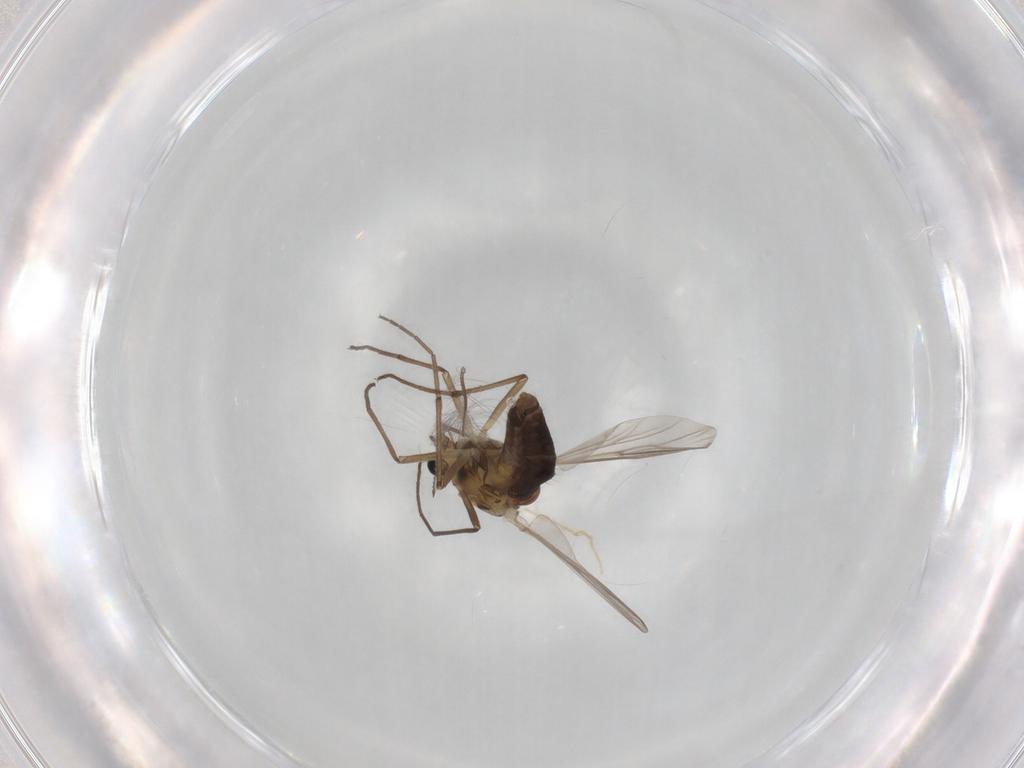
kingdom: Animalia
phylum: Arthropoda
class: Insecta
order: Diptera
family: Chironomidae
